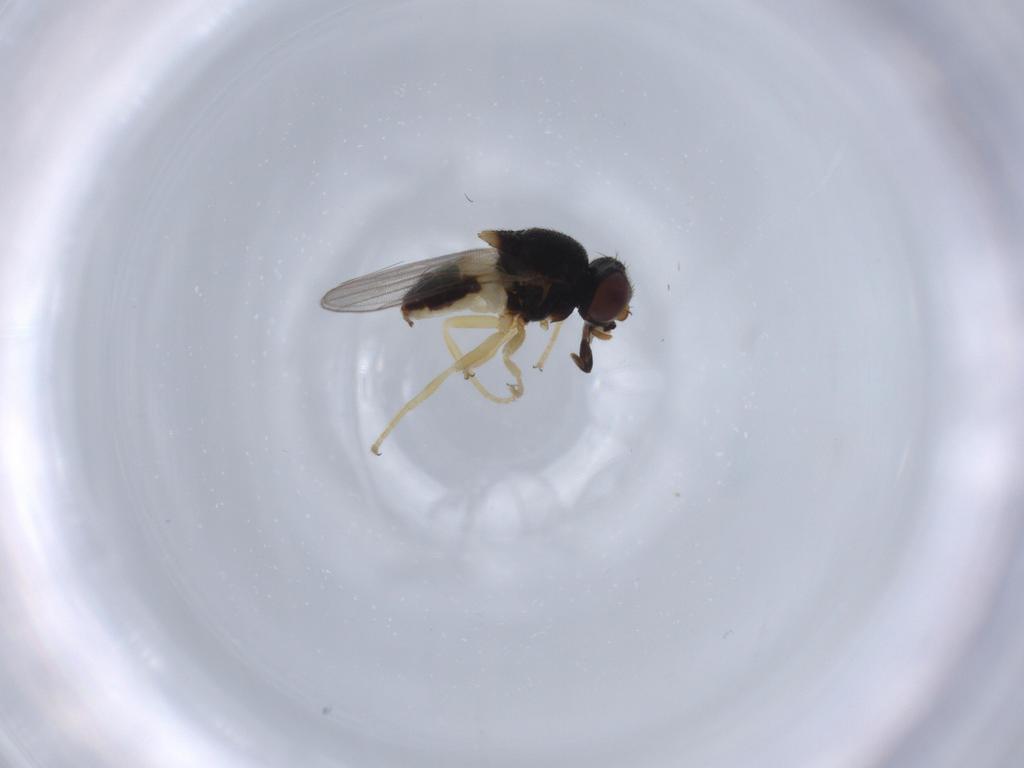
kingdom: Animalia
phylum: Arthropoda
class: Insecta
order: Diptera
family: Chloropidae
